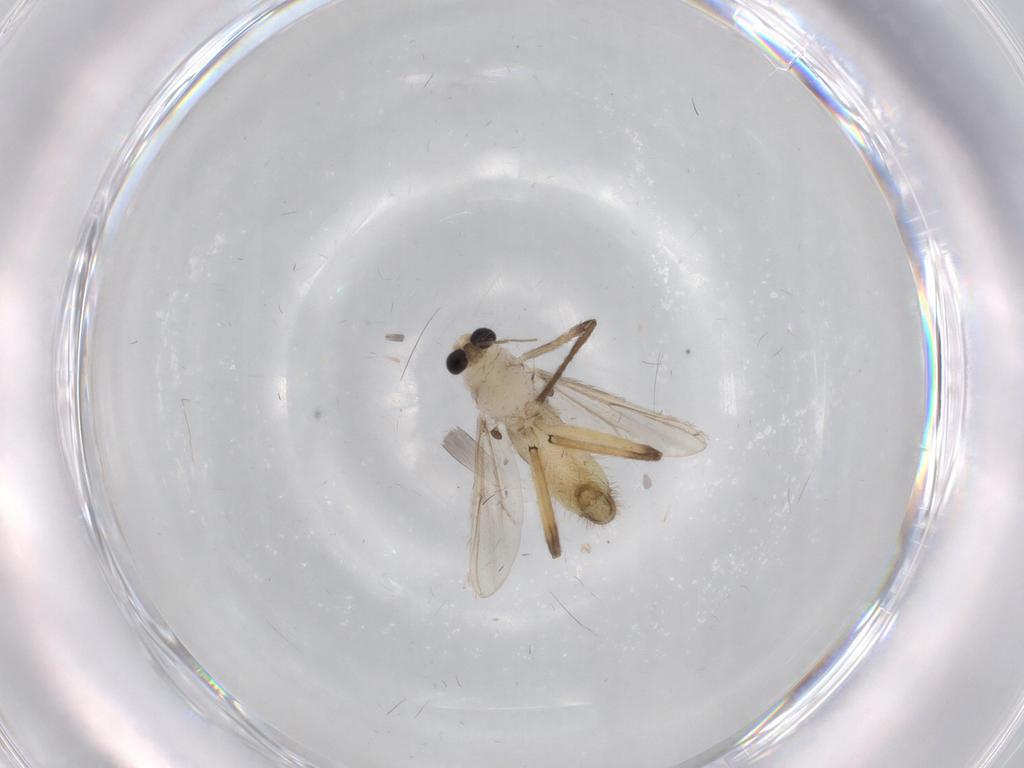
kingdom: Animalia
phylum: Arthropoda
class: Insecta
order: Diptera
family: Chironomidae
